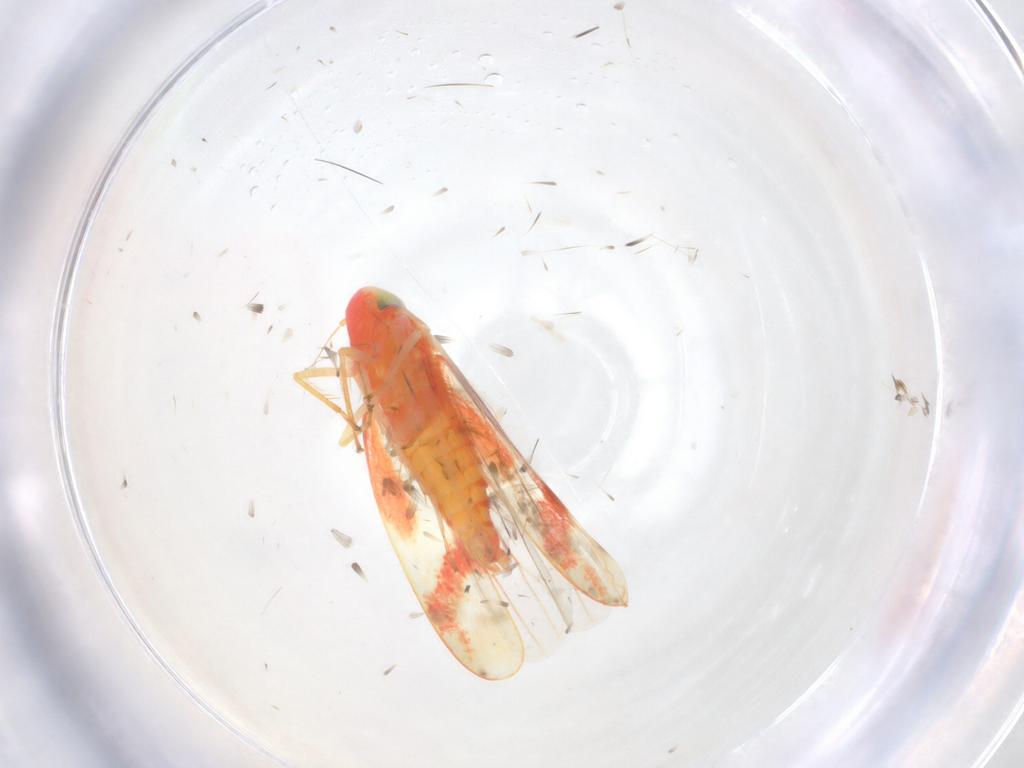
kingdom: Animalia
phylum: Arthropoda
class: Insecta
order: Hemiptera
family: Cicadellidae
